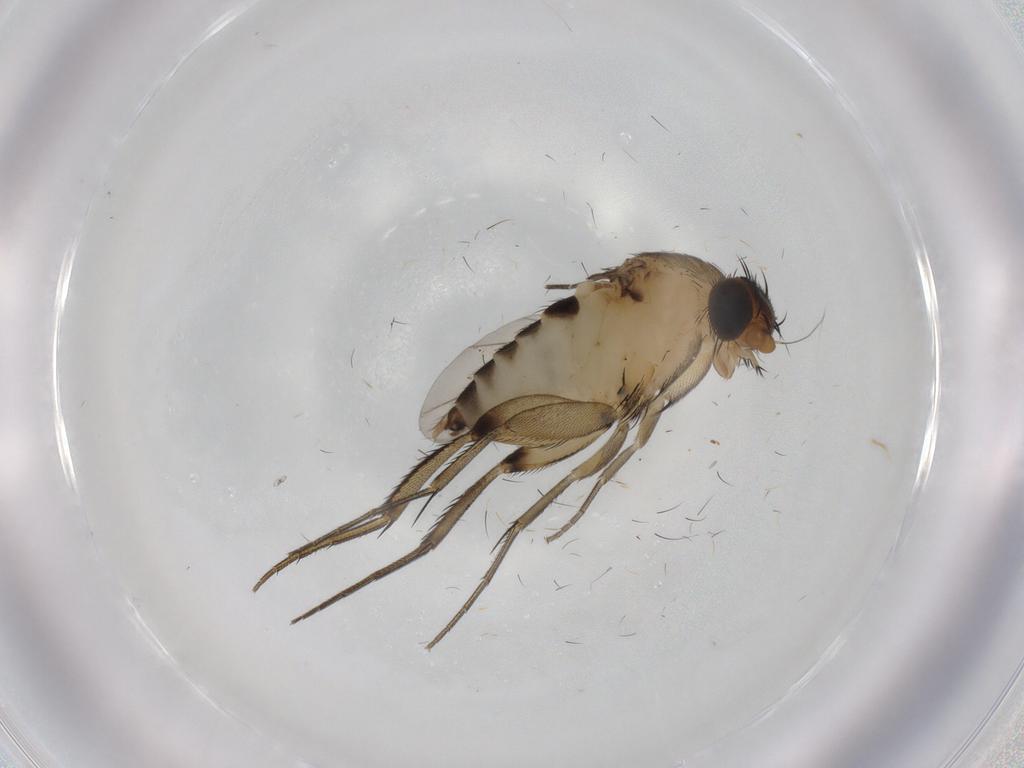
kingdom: Animalia
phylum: Arthropoda
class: Insecta
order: Diptera
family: Phoridae
